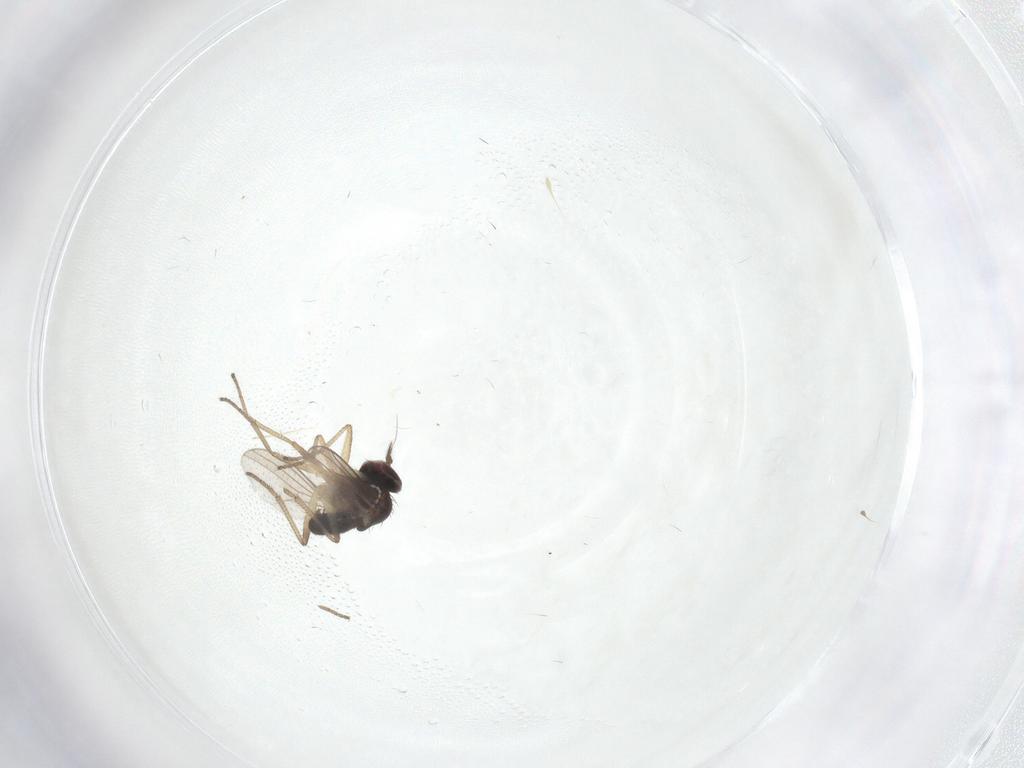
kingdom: Animalia
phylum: Arthropoda
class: Insecta
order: Diptera
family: Dolichopodidae
